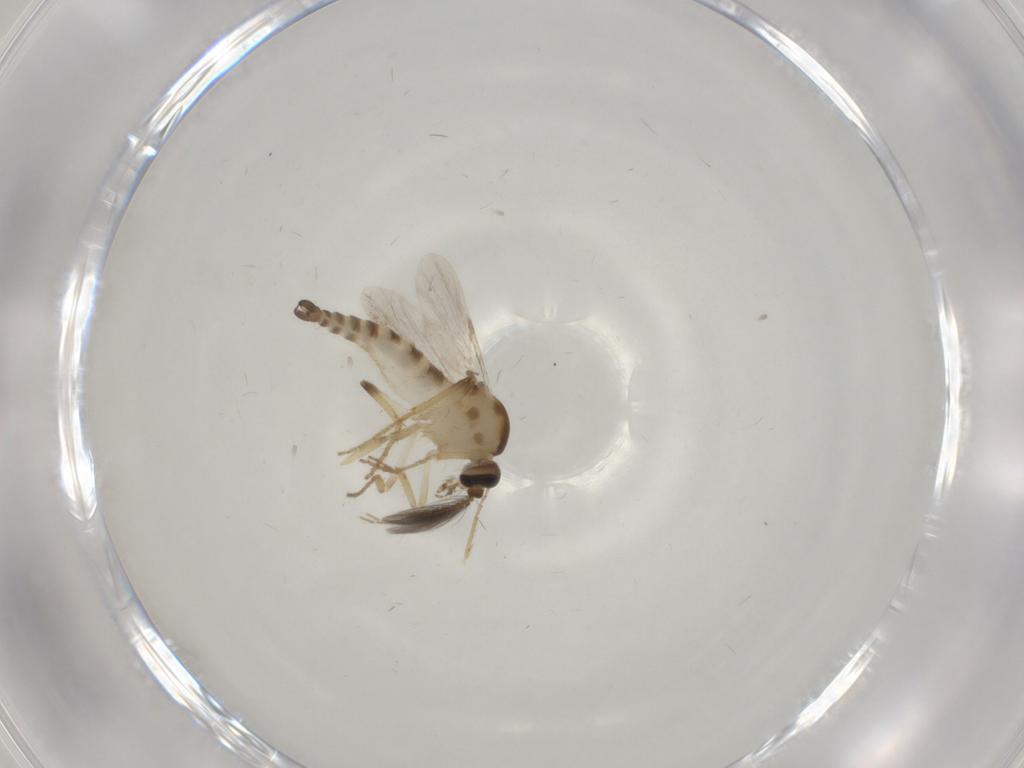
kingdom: Animalia
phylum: Arthropoda
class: Insecta
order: Diptera
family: Ceratopogonidae
